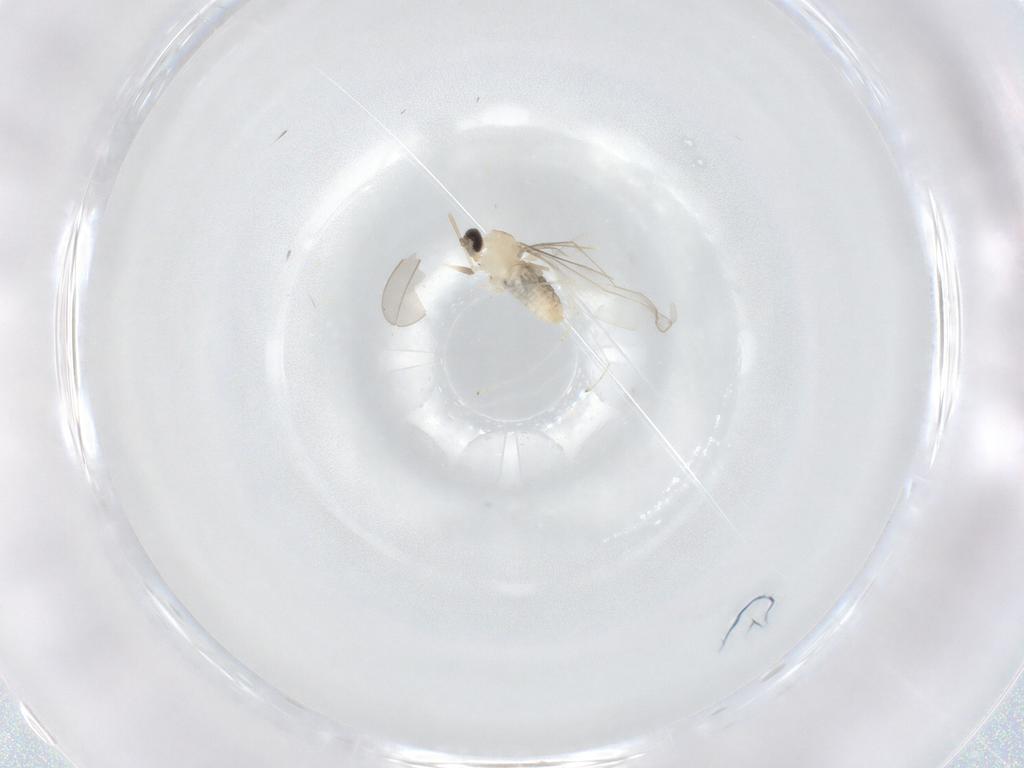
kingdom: Animalia
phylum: Arthropoda
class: Insecta
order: Diptera
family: Cecidomyiidae
